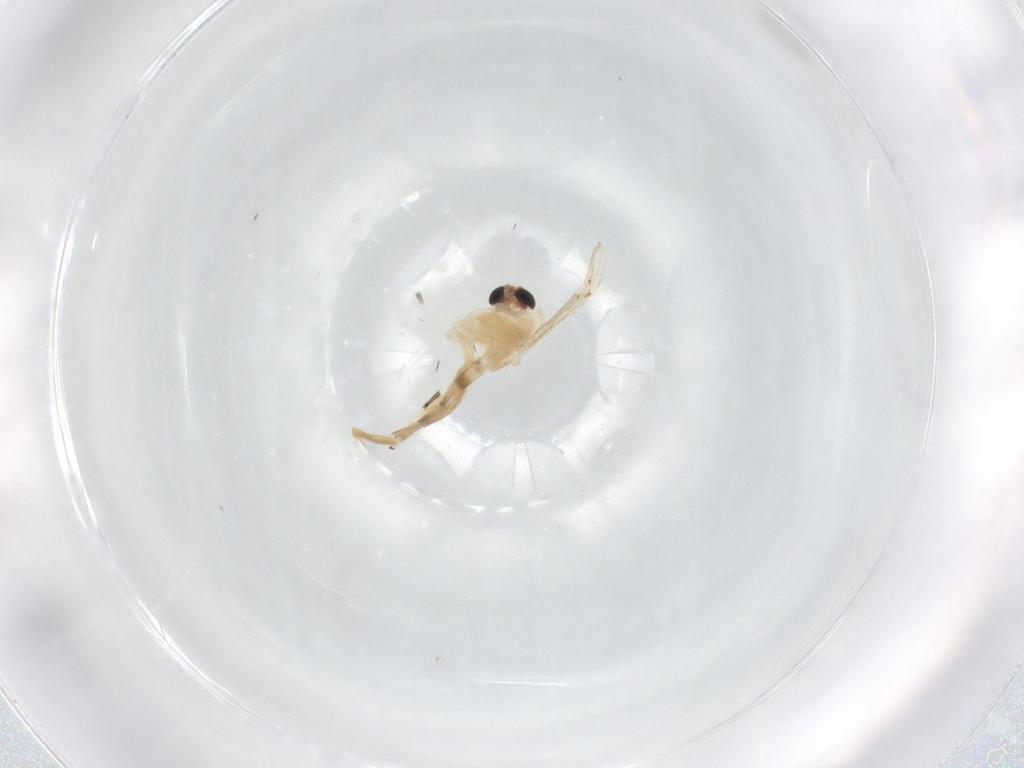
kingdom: Animalia
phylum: Arthropoda
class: Insecta
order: Diptera
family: Chironomidae
